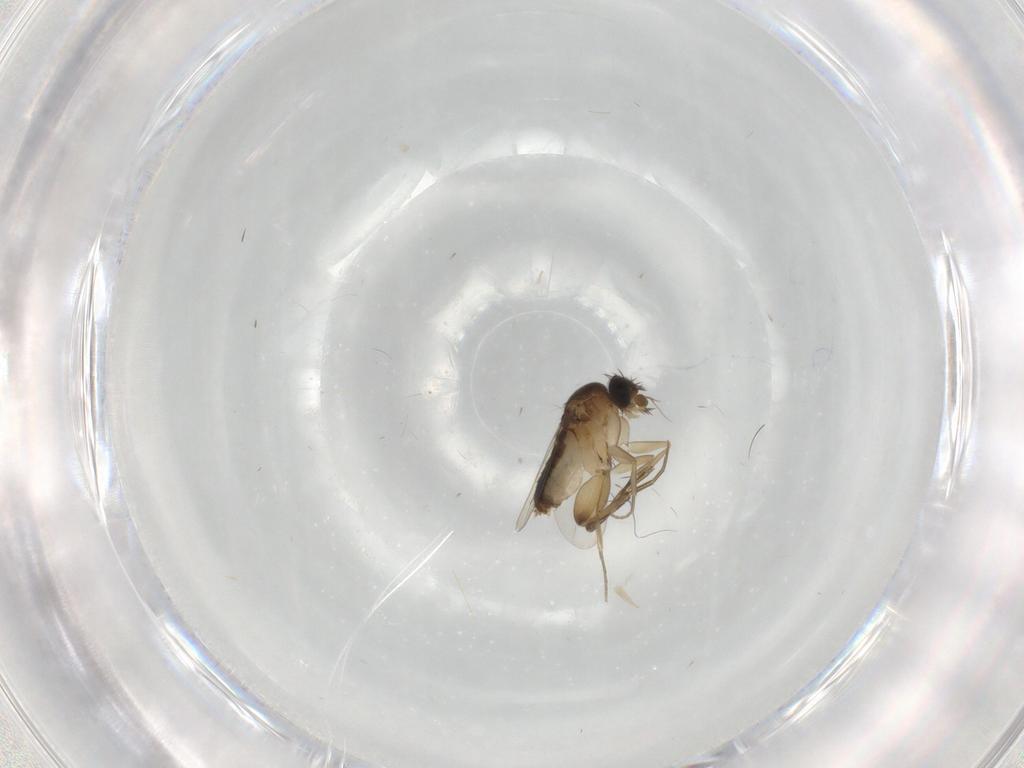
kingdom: Animalia
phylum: Arthropoda
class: Insecta
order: Diptera
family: Phoridae
